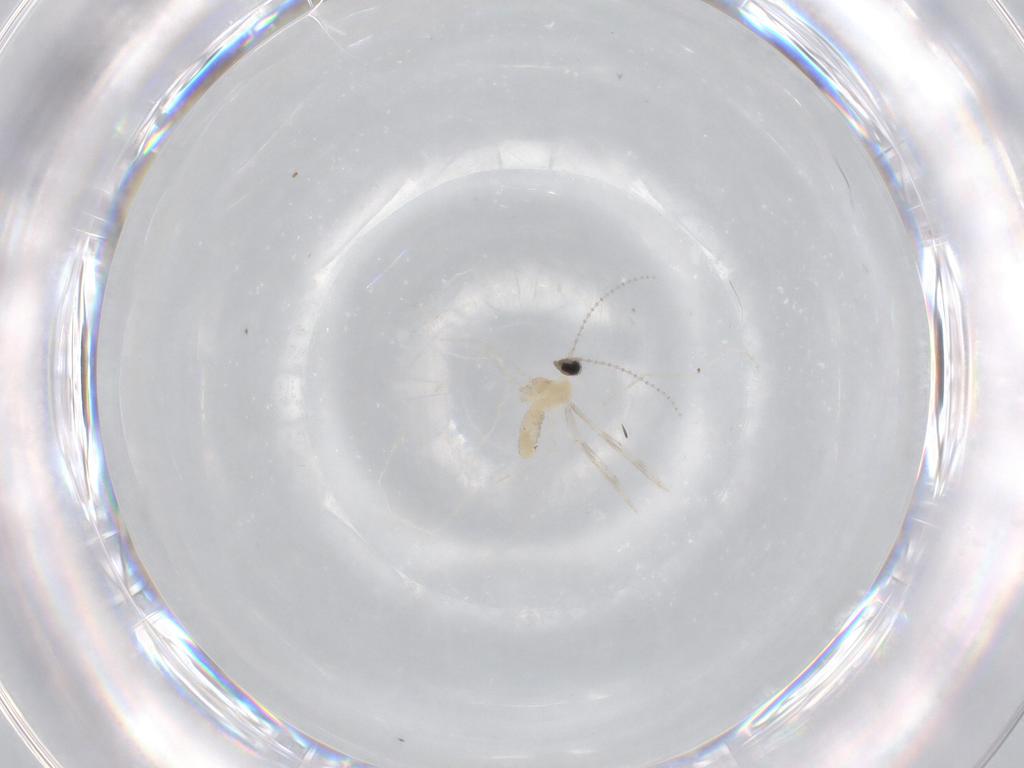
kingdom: Animalia
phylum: Arthropoda
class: Insecta
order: Diptera
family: Cecidomyiidae
